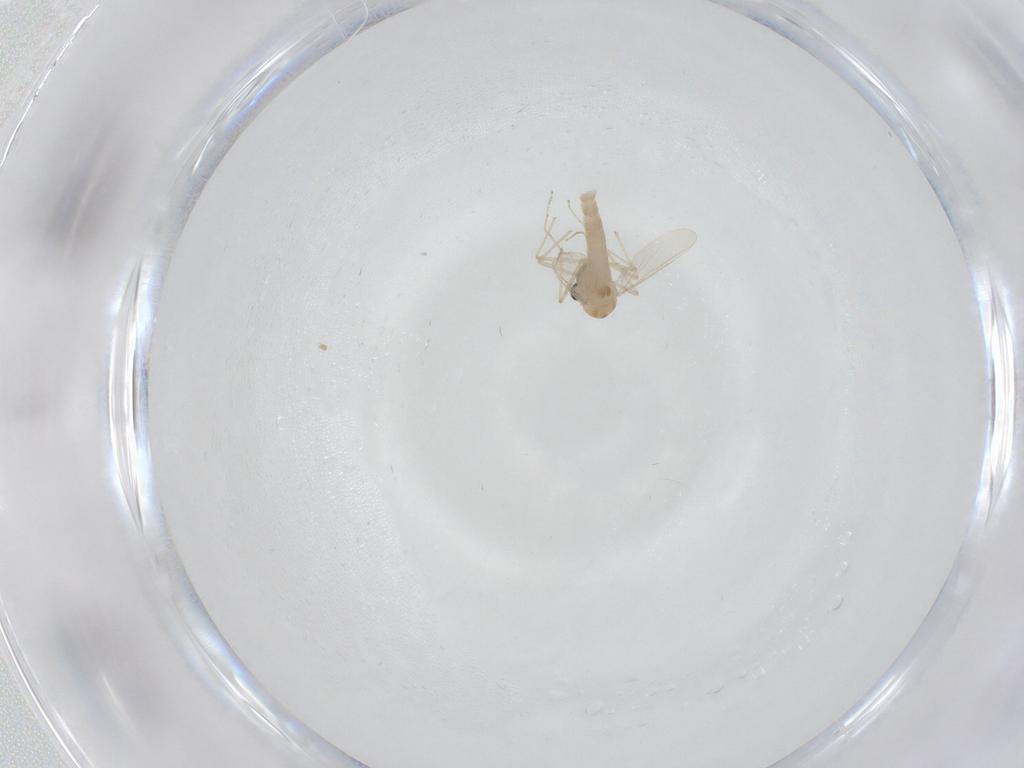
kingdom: Animalia
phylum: Arthropoda
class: Insecta
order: Diptera
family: Chironomidae
